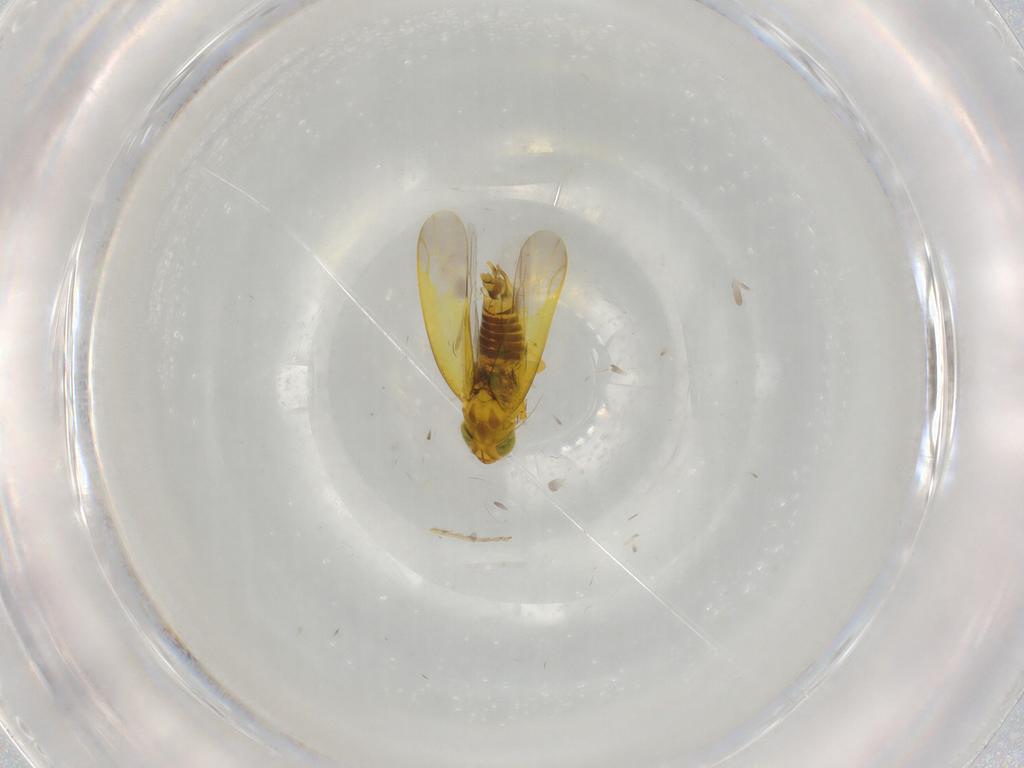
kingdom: Animalia
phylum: Arthropoda
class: Insecta
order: Hemiptera
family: Cicadellidae
